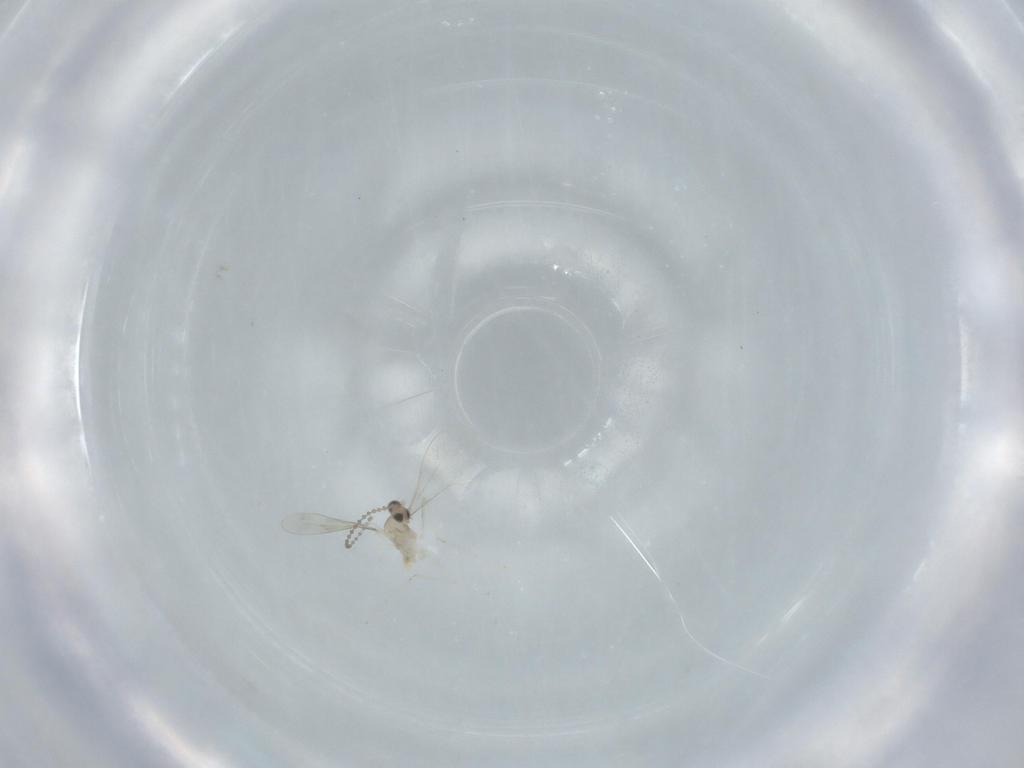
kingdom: Animalia
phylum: Arthropoda
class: Insecta
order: Diptera
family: Cecidomyiidae
